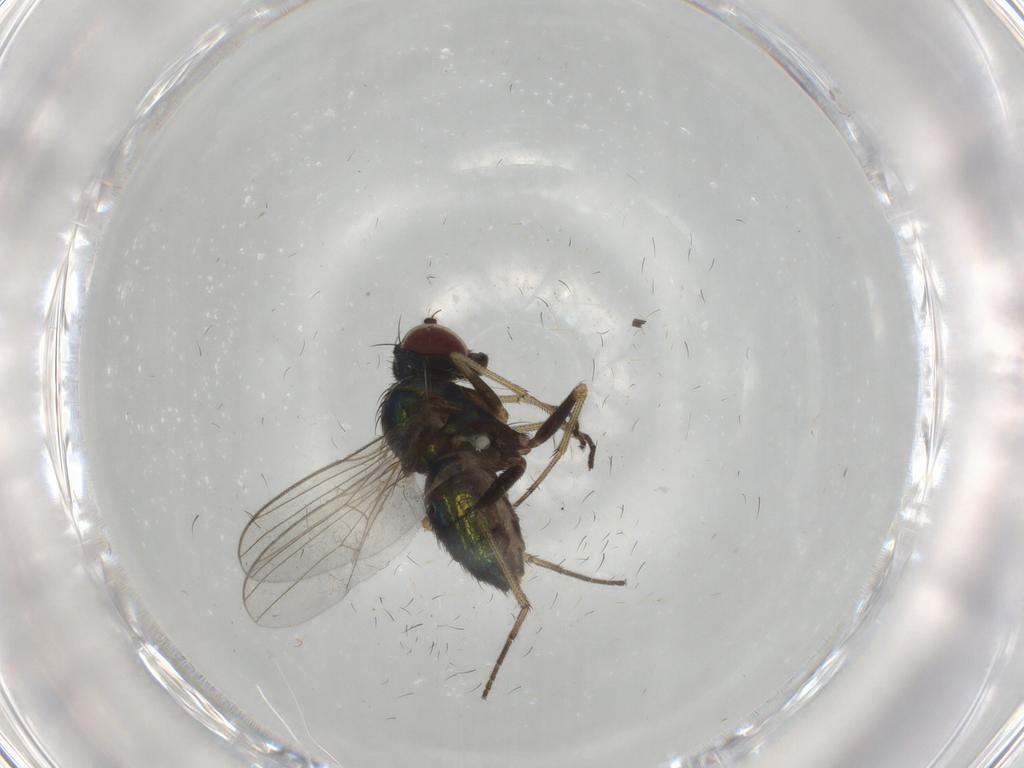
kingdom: Animalia
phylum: Arthropoda
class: Insecta
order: Diptera
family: Dolichopodidae
